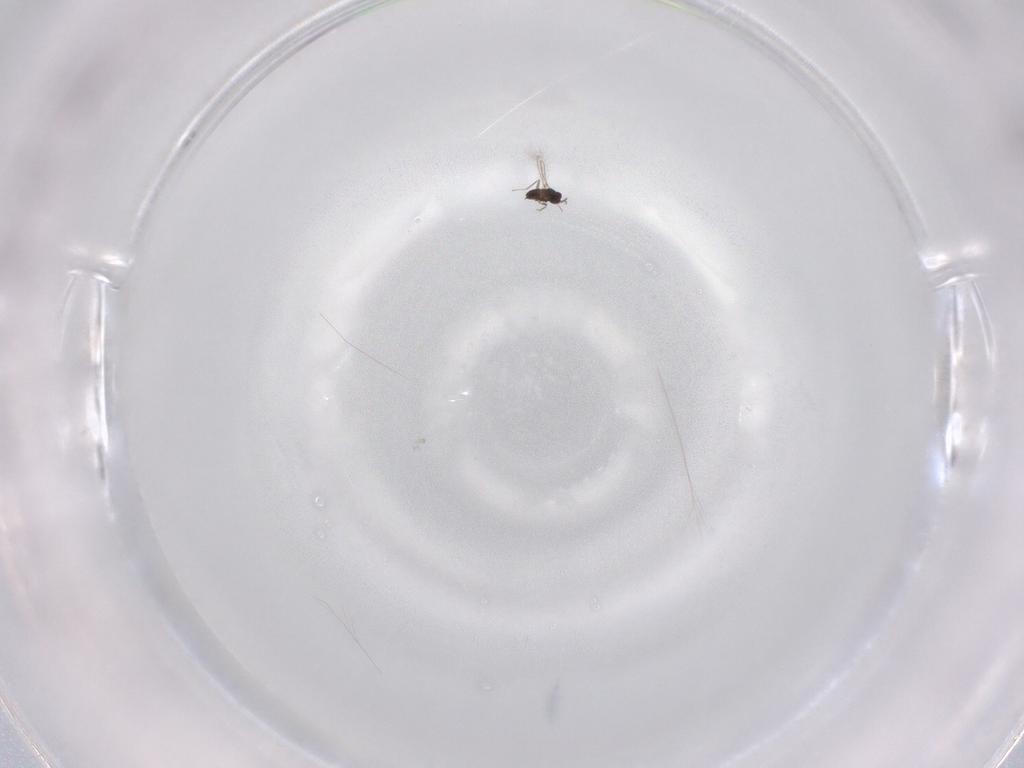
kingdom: Animalia
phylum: Arthropoda
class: Insecta
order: Hymenoptera
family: Mymaridae
